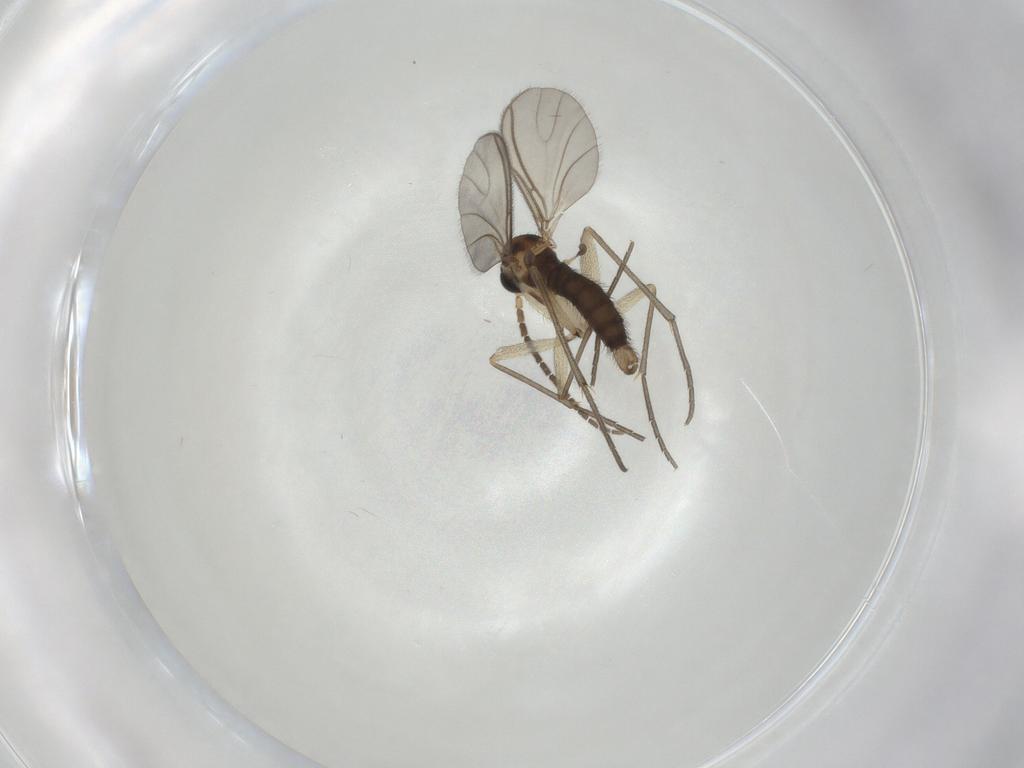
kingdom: Animalia
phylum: Arthropoda
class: Insecta
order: Diptera
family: Sciaridae
